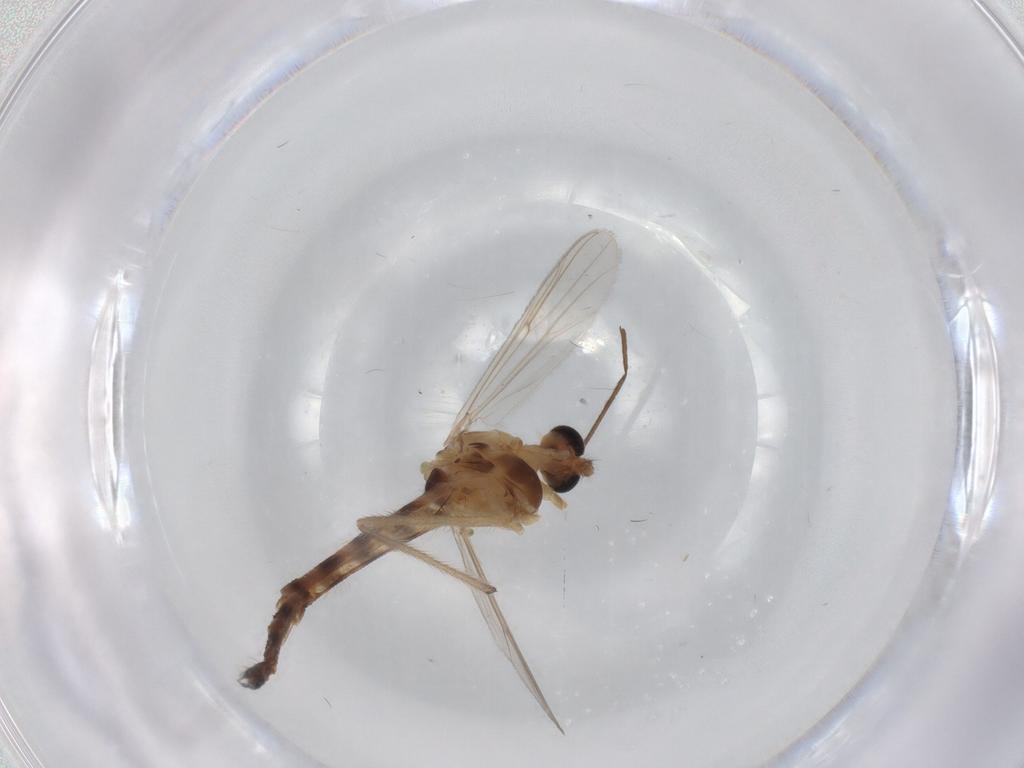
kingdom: Animalia
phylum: Arthropoda
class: Insecta
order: Diptera
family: Chironomidae
